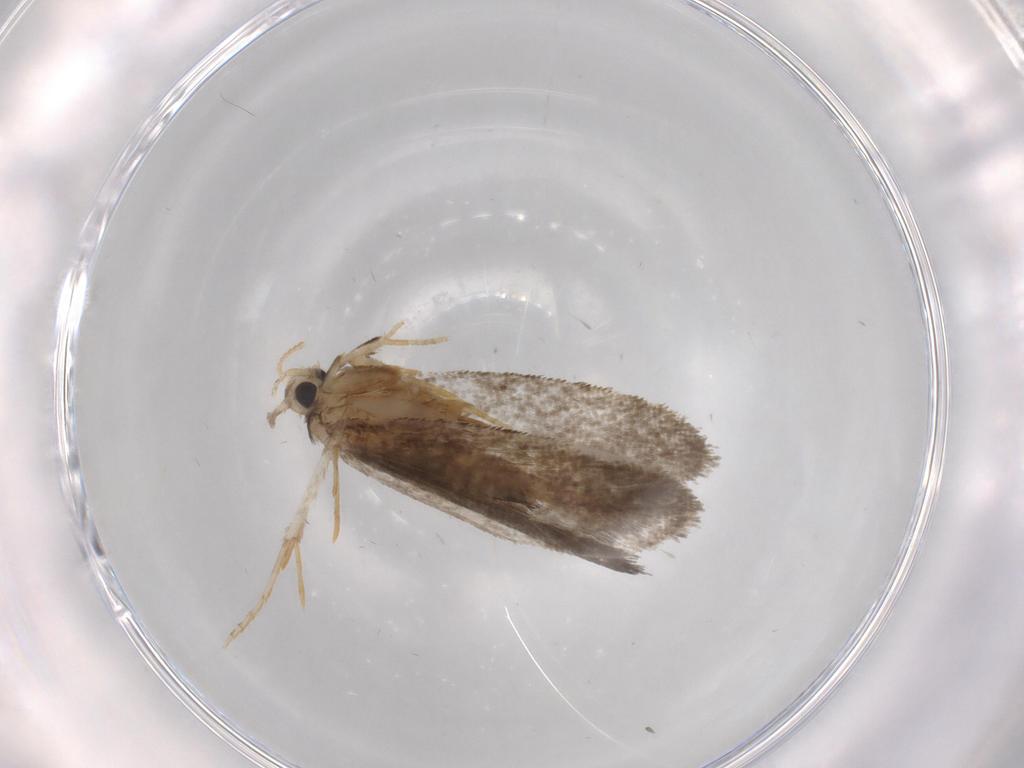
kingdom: Animalia
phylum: Arthropoda
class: Insecta
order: Lepidoptera
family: Psychidae
